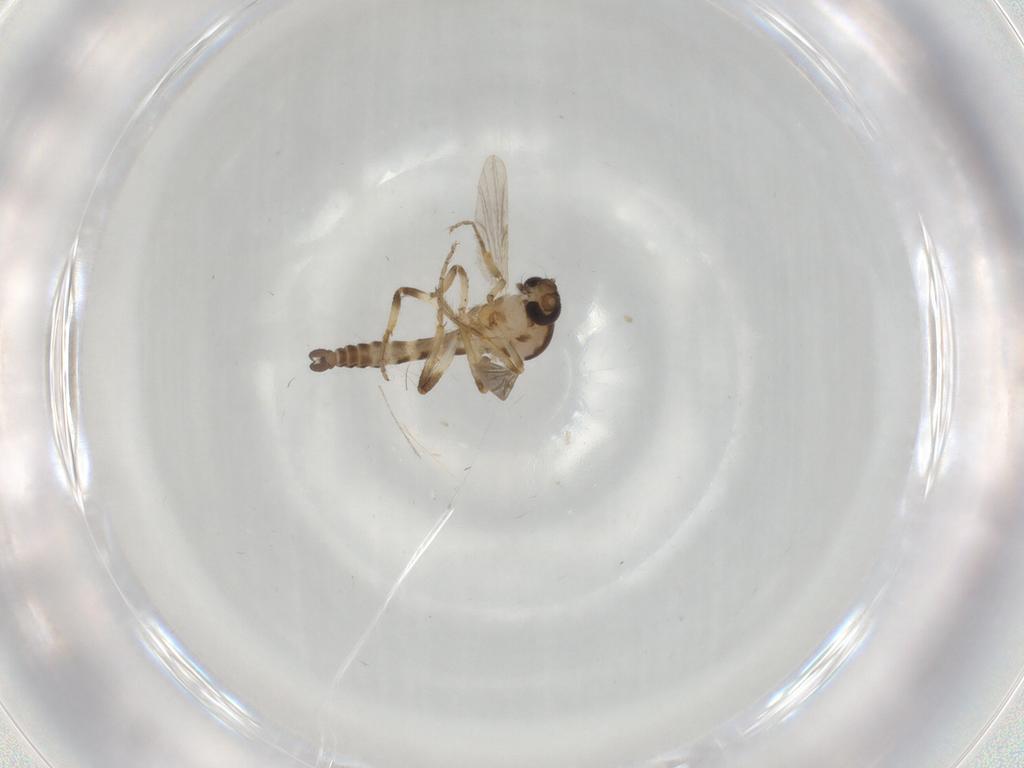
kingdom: Animalia
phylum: Arthropoda
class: Insecta
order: Diptera
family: Ceratopogonidae
